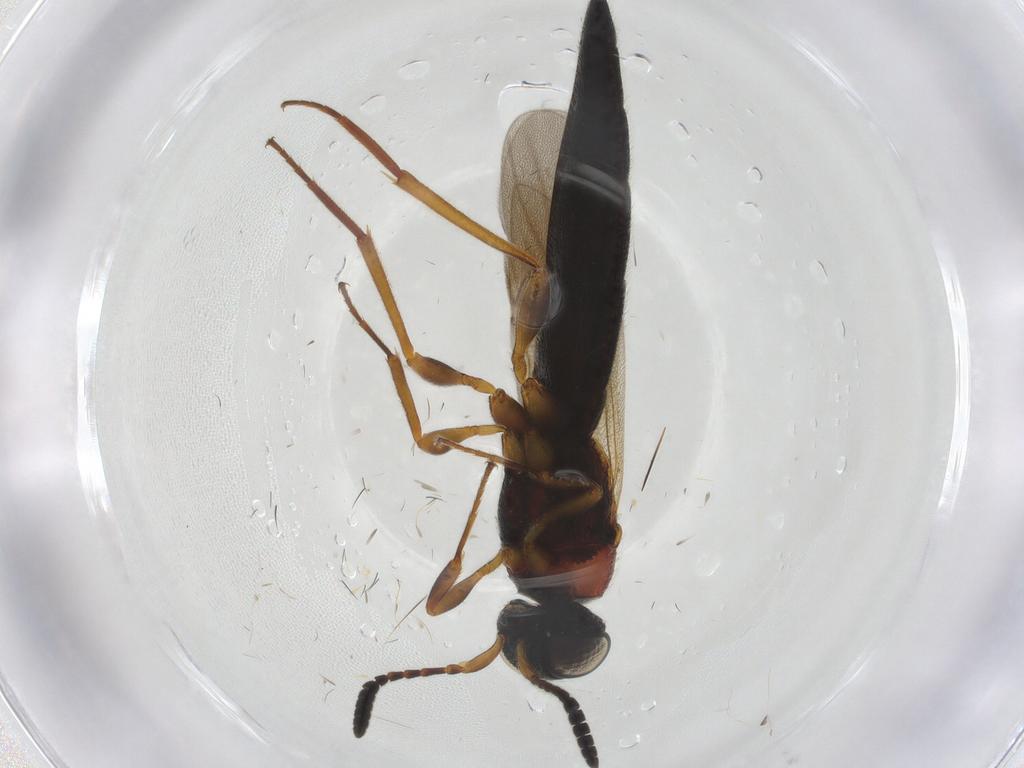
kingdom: Animalia
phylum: Arthropoda
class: Insecta
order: Hymenoptera
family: Scelionidae
